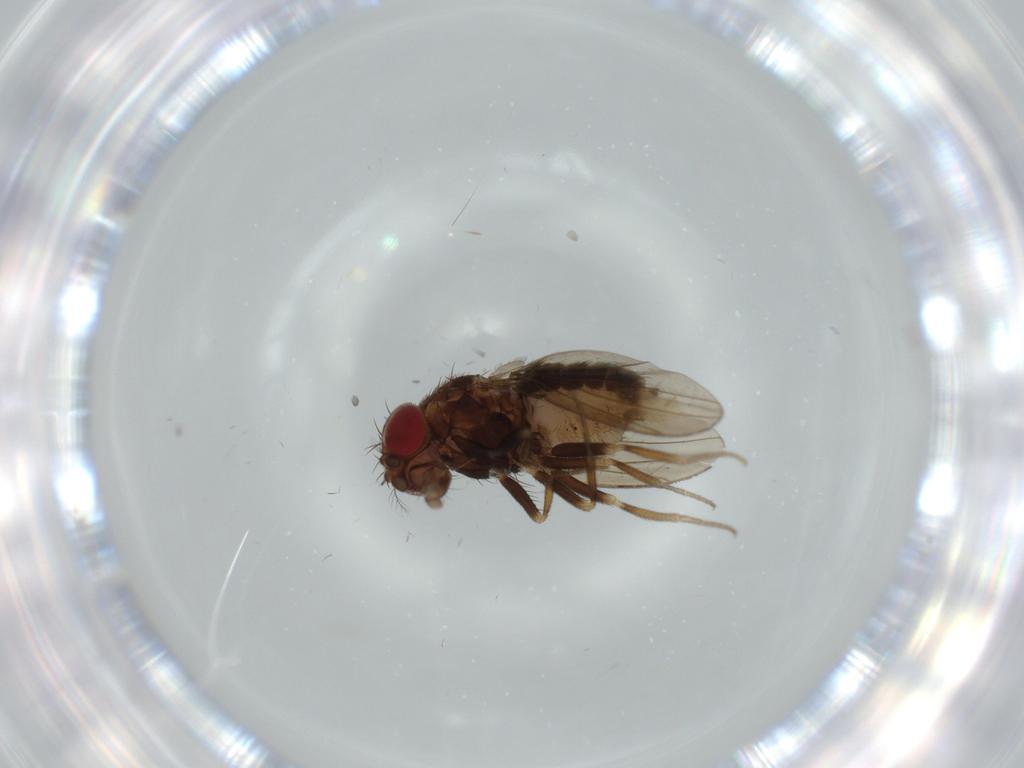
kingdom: Animalia
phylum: Arthropoda
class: Insecta
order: Diptera
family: Drosophilidae
